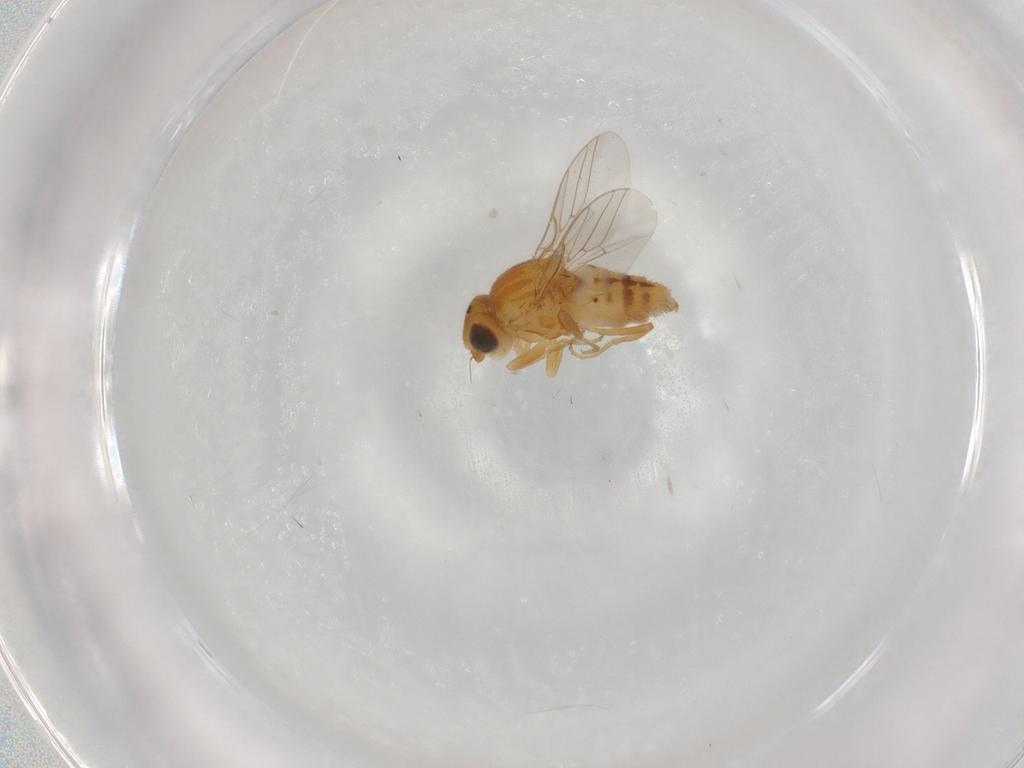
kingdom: Animalia
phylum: Arthropoda
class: Insecta
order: Diptera
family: Chloropidae
